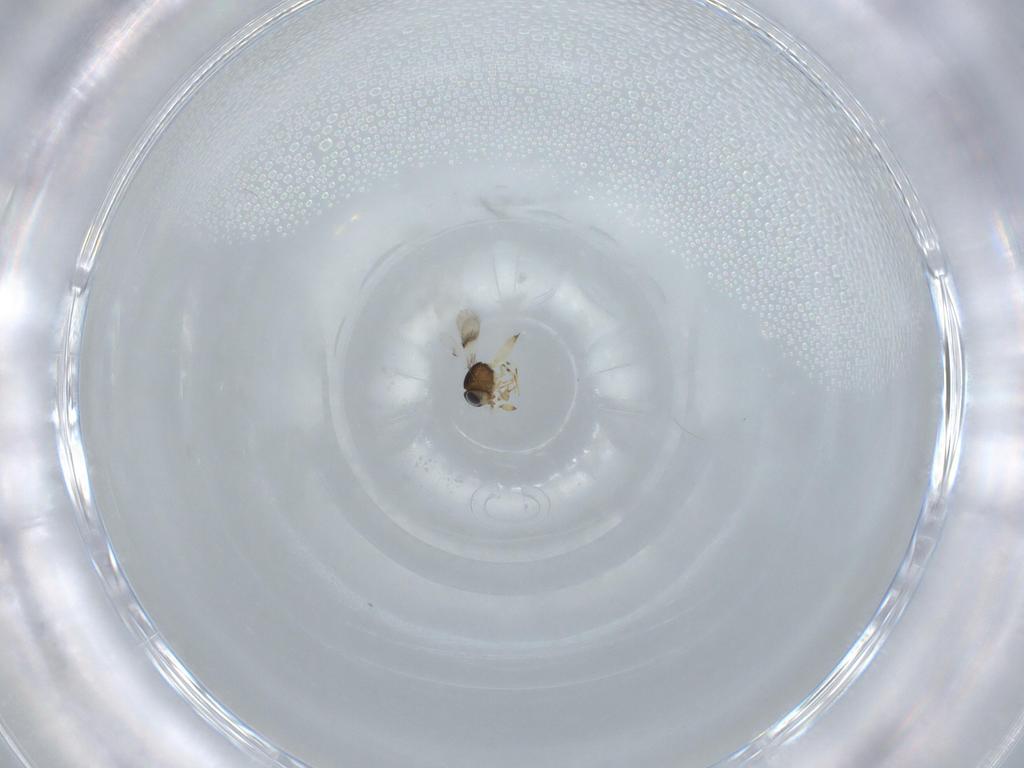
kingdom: Animalia
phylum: Arthropoda
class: Insecta
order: Hymenoptera
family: Scelionidae
